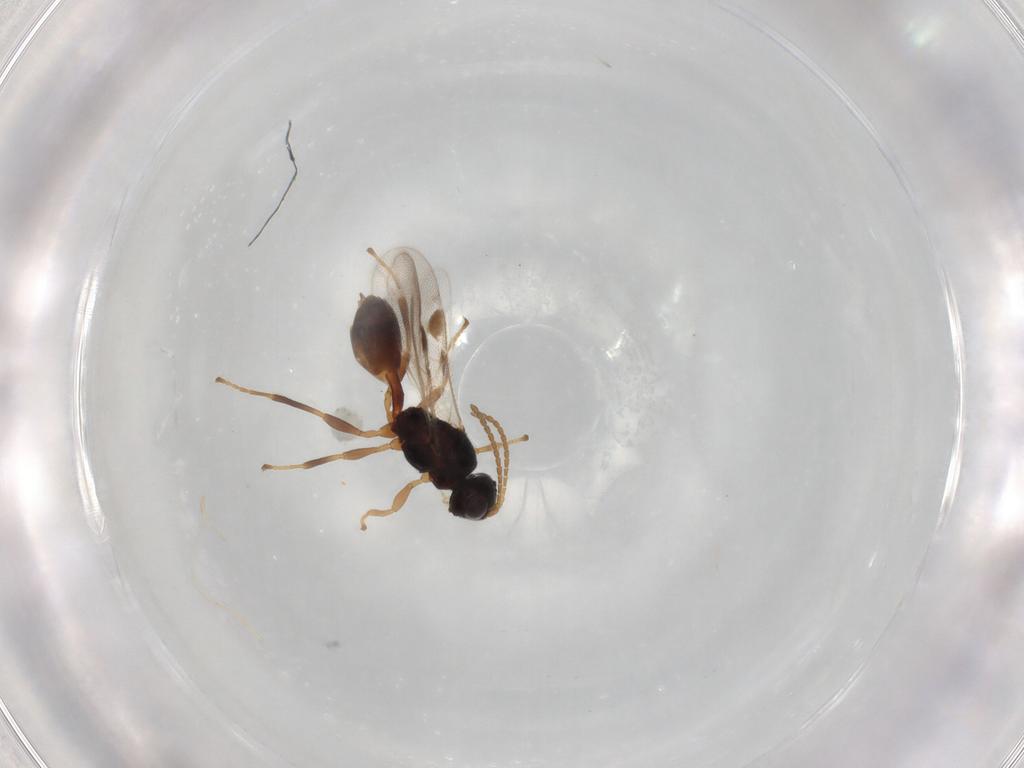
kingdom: Animalia
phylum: Arthropoda
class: Insecta
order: Hymenoptera
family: Braconidae
